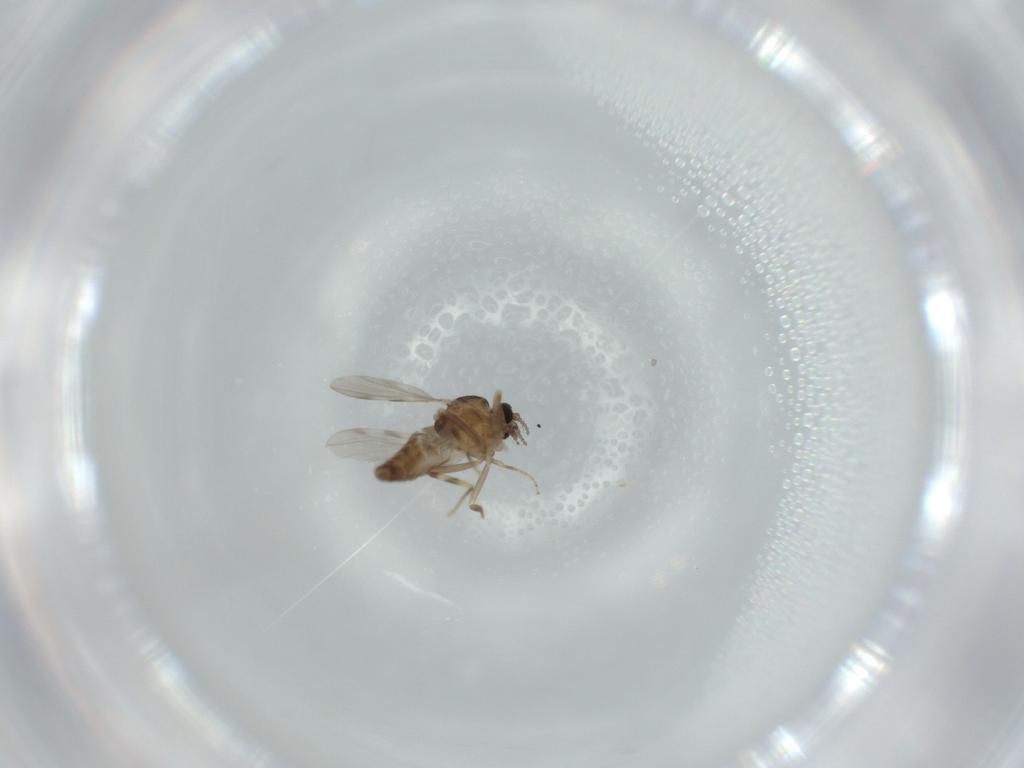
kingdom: Animalia
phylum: Arthropoda
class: Insecta
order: Diptera
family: Ceratopogonidae
